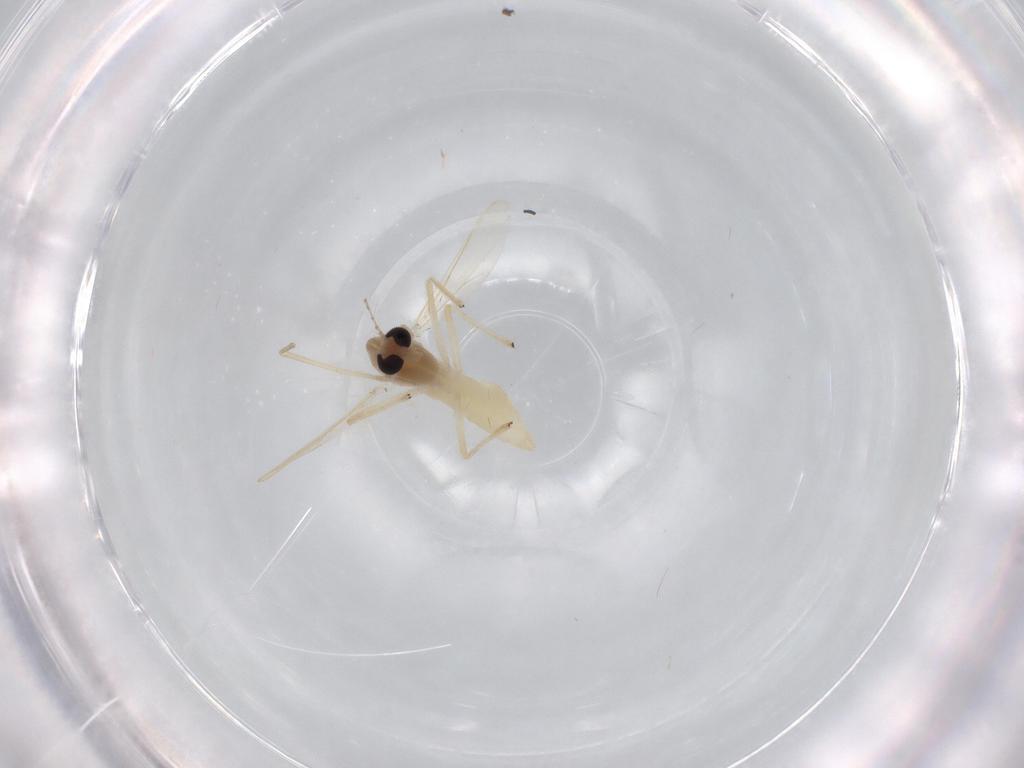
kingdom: Animalia
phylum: Arthropoda
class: Insecta
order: Diptera
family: Chironomidae
